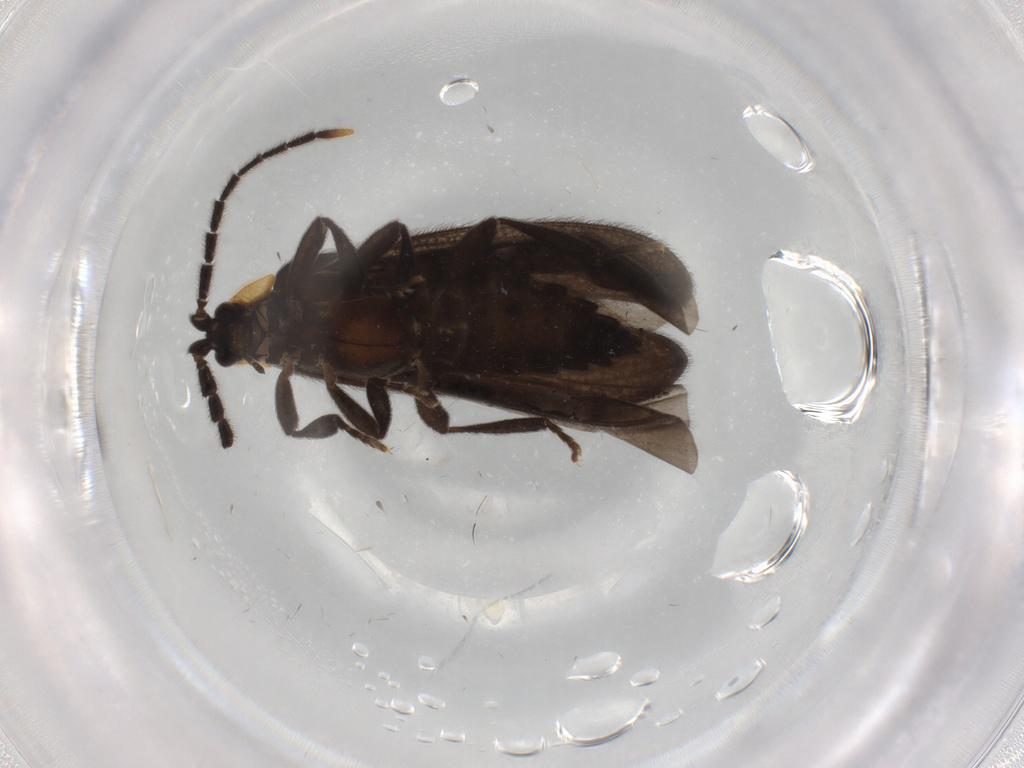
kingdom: Animalia
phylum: Arthropoda
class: Insecta
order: Coleoptera
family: Lycidae
